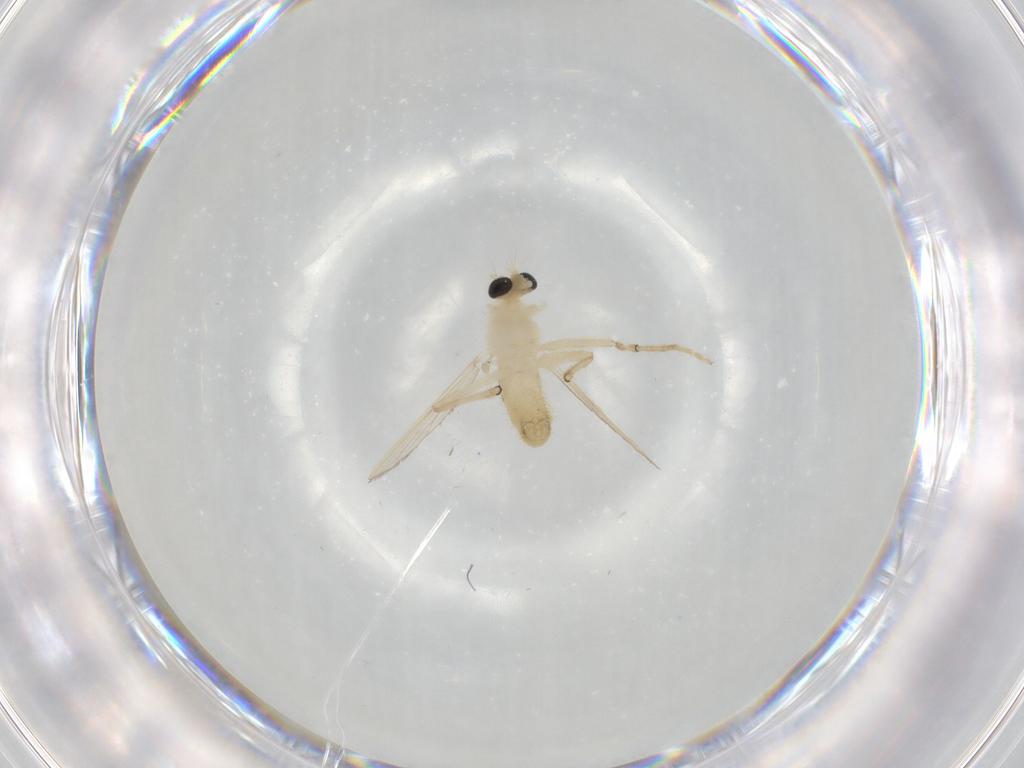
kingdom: Animalia
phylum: Arthropoda
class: Insecta
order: Diptera
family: Chironomidae
